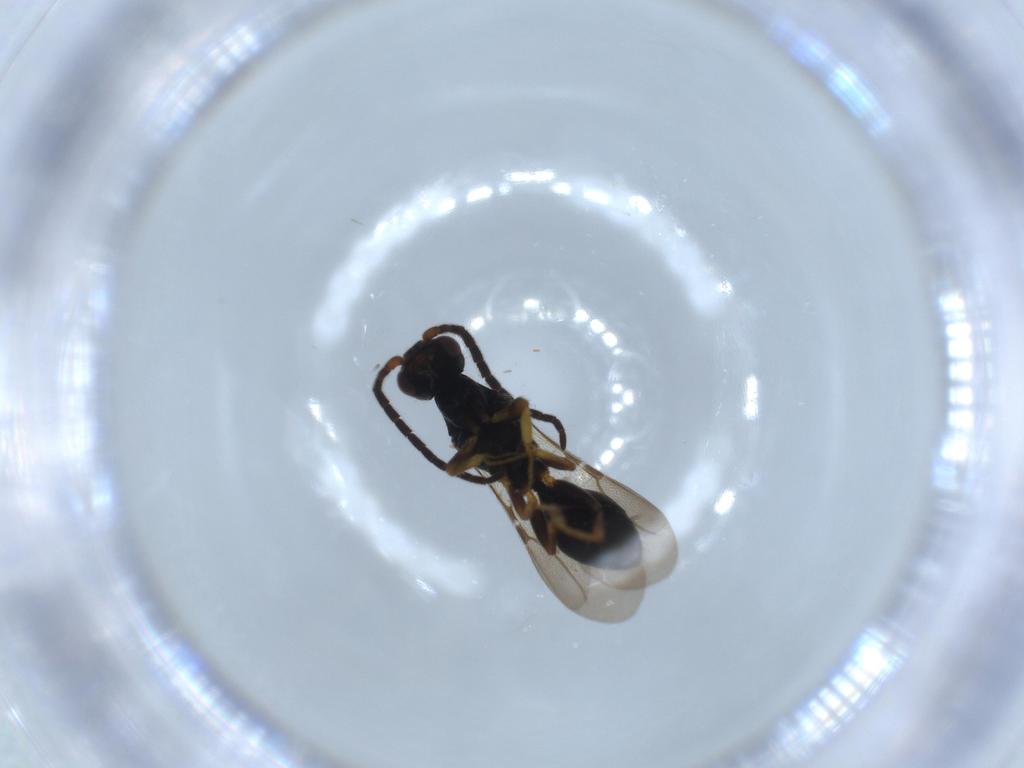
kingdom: Animalia
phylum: Arthropoda
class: Insecta
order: Hymenoptera
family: Bethylidae
